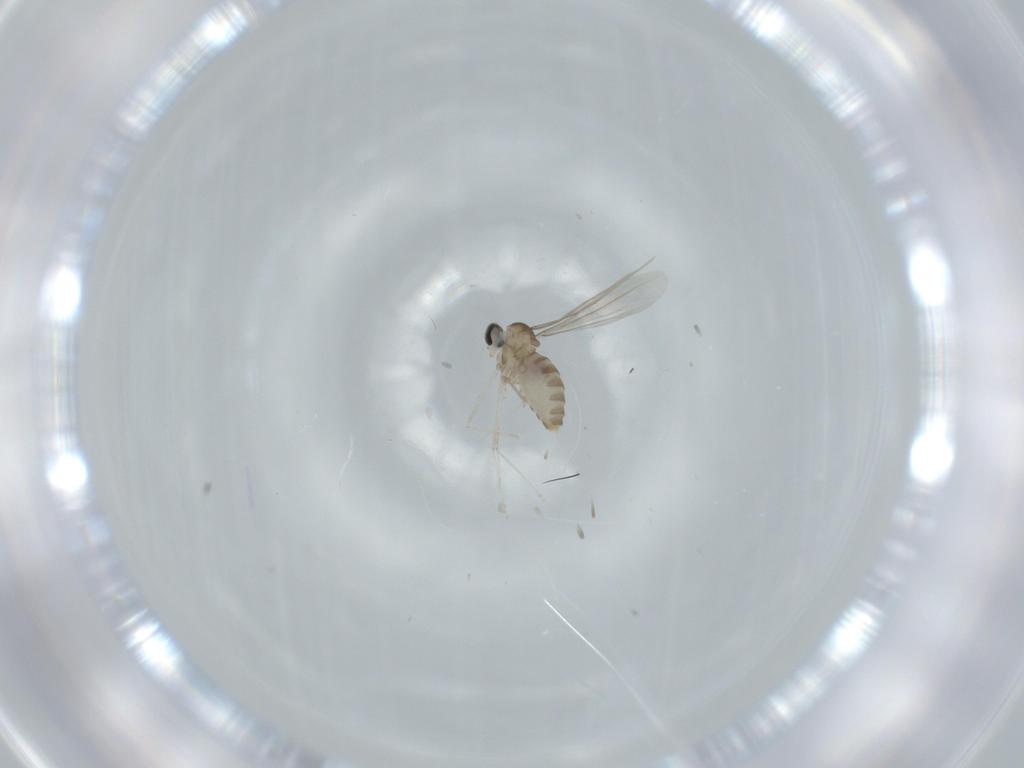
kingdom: Animalia
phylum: Arthropoda
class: Insecta
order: Diptera
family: Cecidomyiidae
